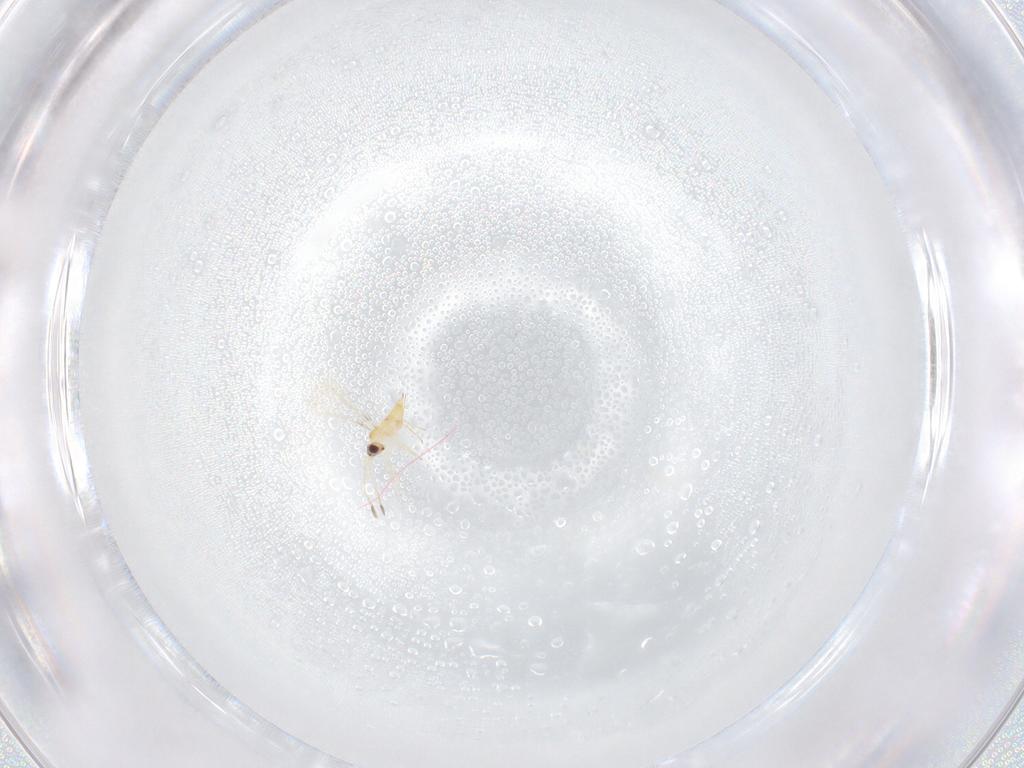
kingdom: Animalia
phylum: Arthropoda
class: Insecta
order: Hymenoptera
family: Mymaridae
